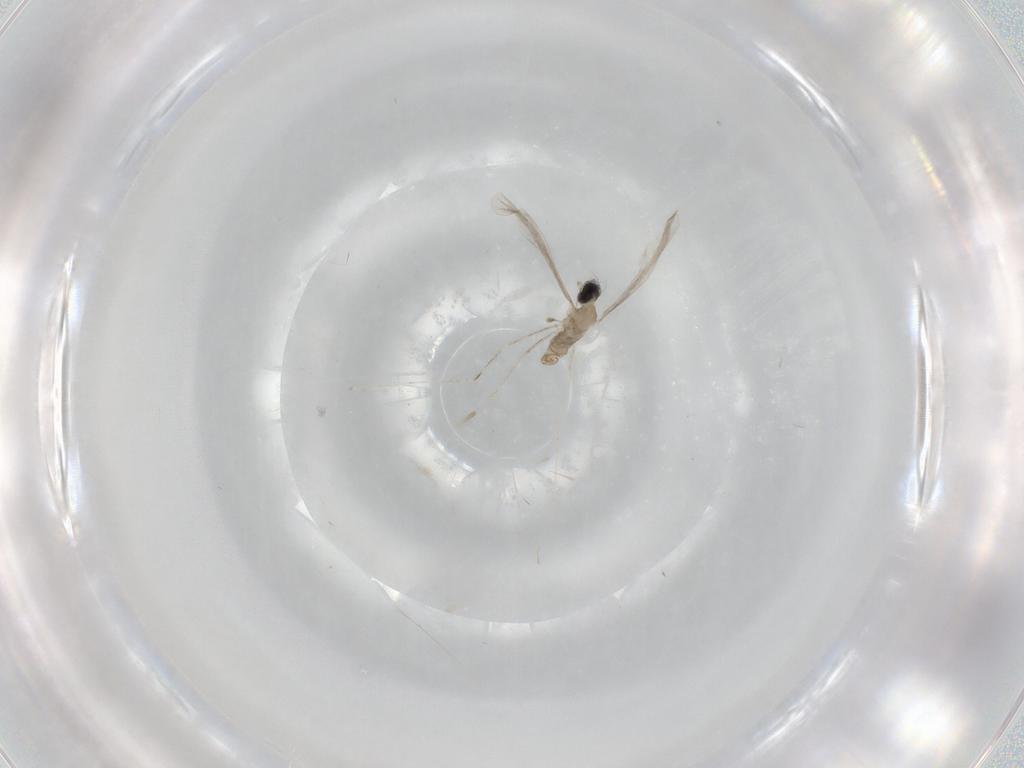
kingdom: Animalia
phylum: Arthropoda
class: Insecta
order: Diptera
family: Cecidomyiidae
